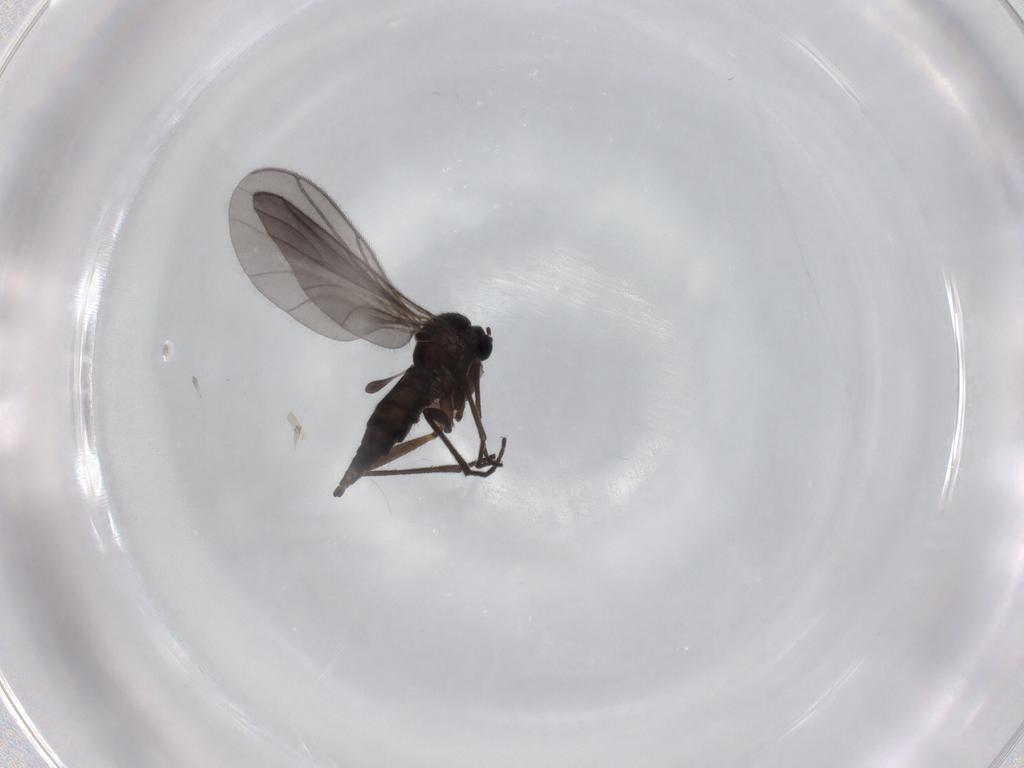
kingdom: Animalia
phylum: Arthropoda
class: Insecta
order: Diptera
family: Sciaridae
